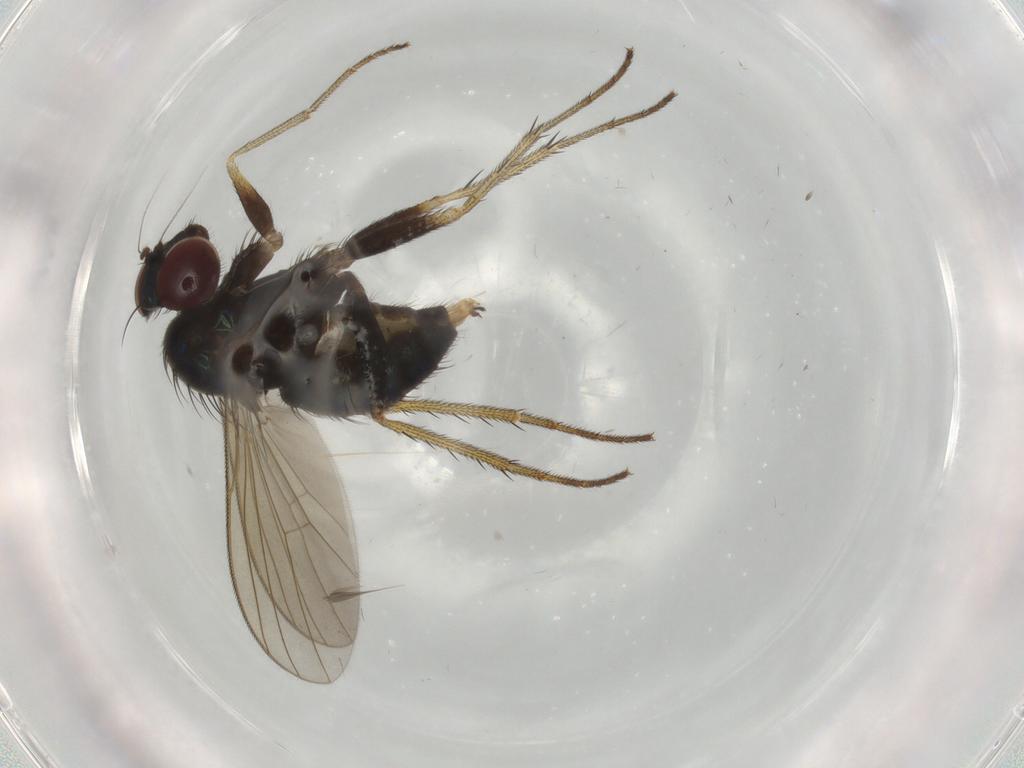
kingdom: Animalia
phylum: Arthropoda
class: Insecta
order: Diptera
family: Dolichopodidae
